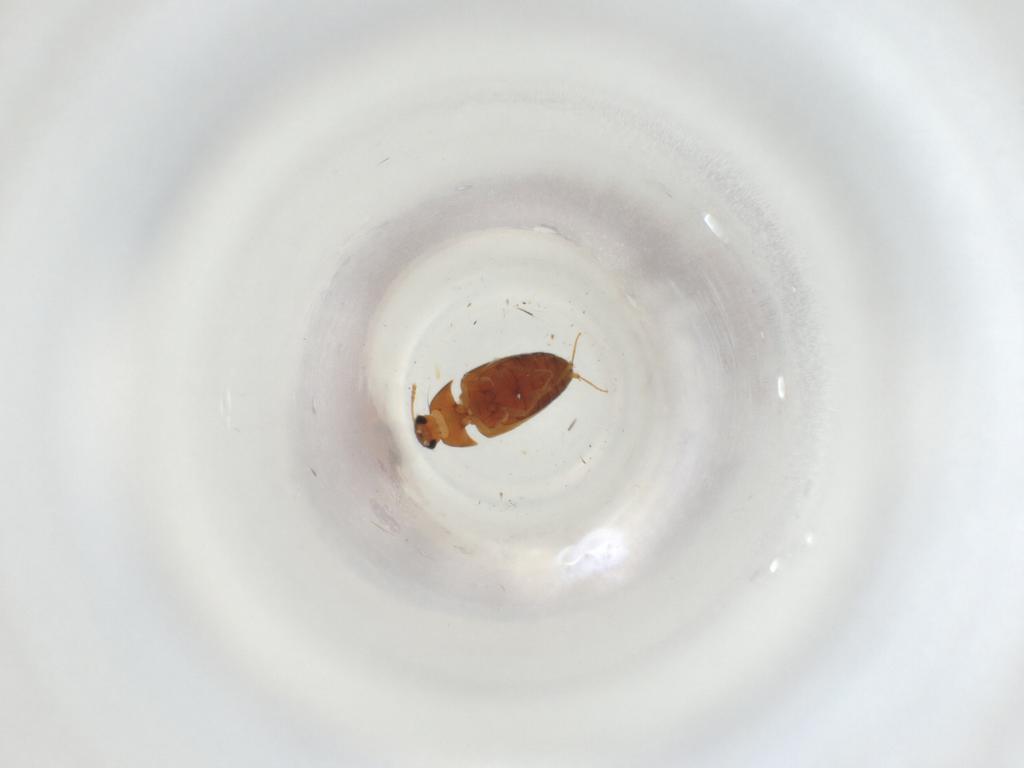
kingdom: Animalia
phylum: Arthropoda
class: Insecta
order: Coleoptera
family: Mycetophagidae
